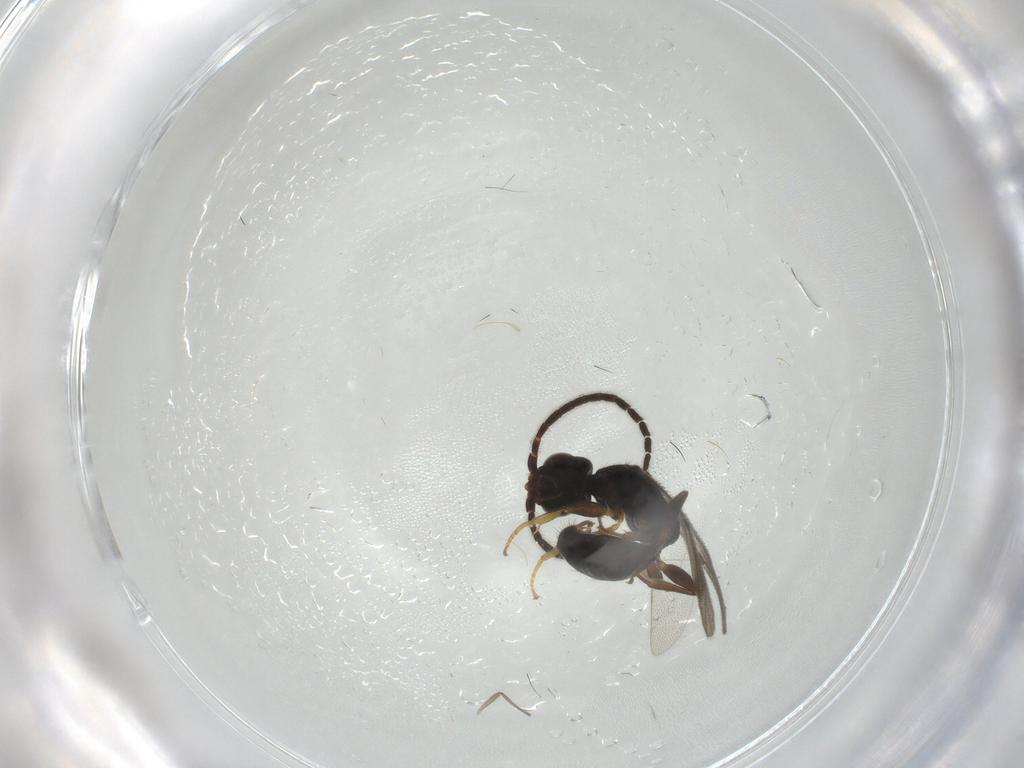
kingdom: Animalia
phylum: Arthropoda
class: Insecta
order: Hymenoptera
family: Bethylidae
